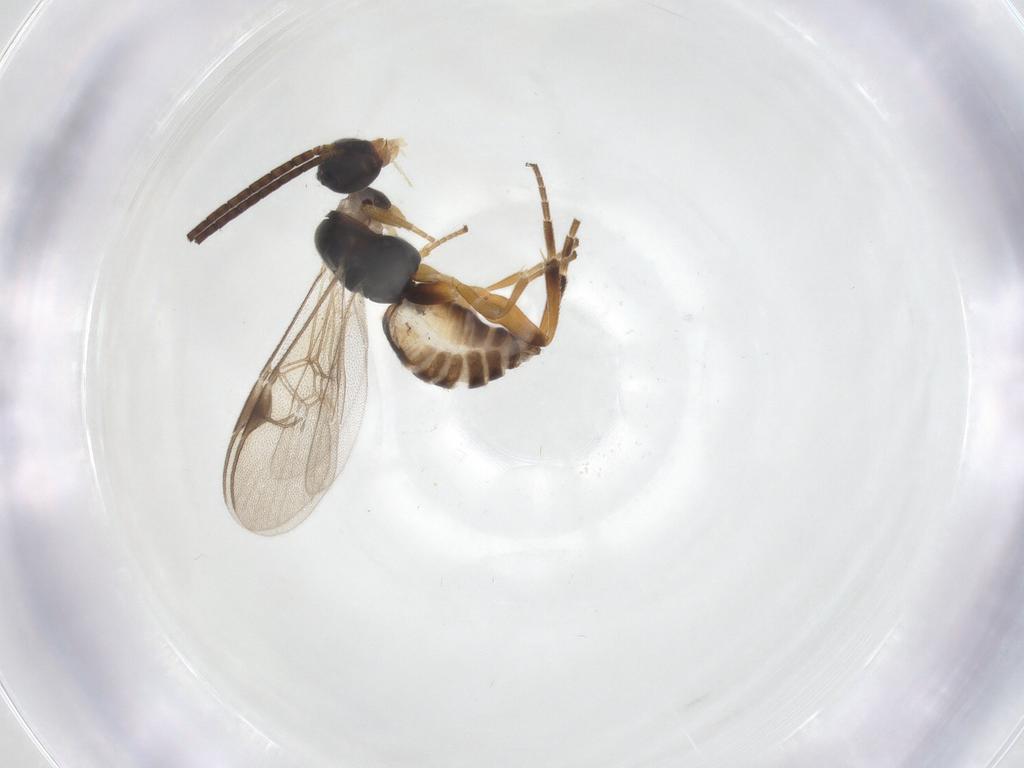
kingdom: Animalia
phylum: Arthropoda
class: Insecta
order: Hymenoptera
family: Braconidae
